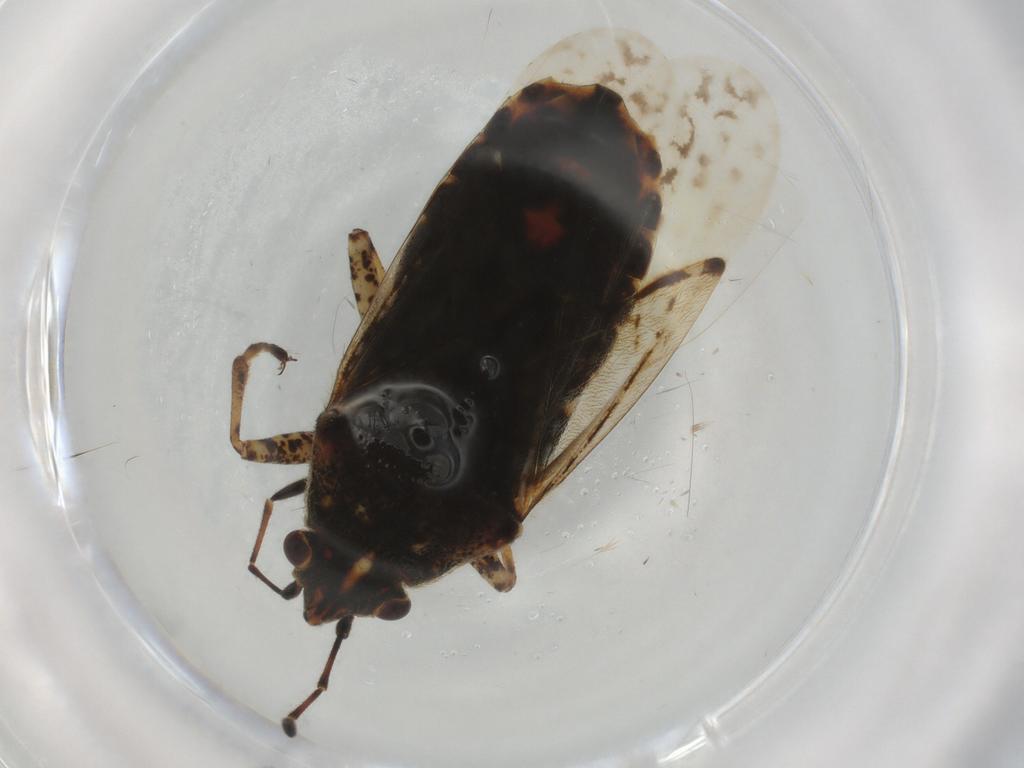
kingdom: Animalia
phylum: Arthropoda
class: Insecta
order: Hemiptera
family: Lygaeidae
